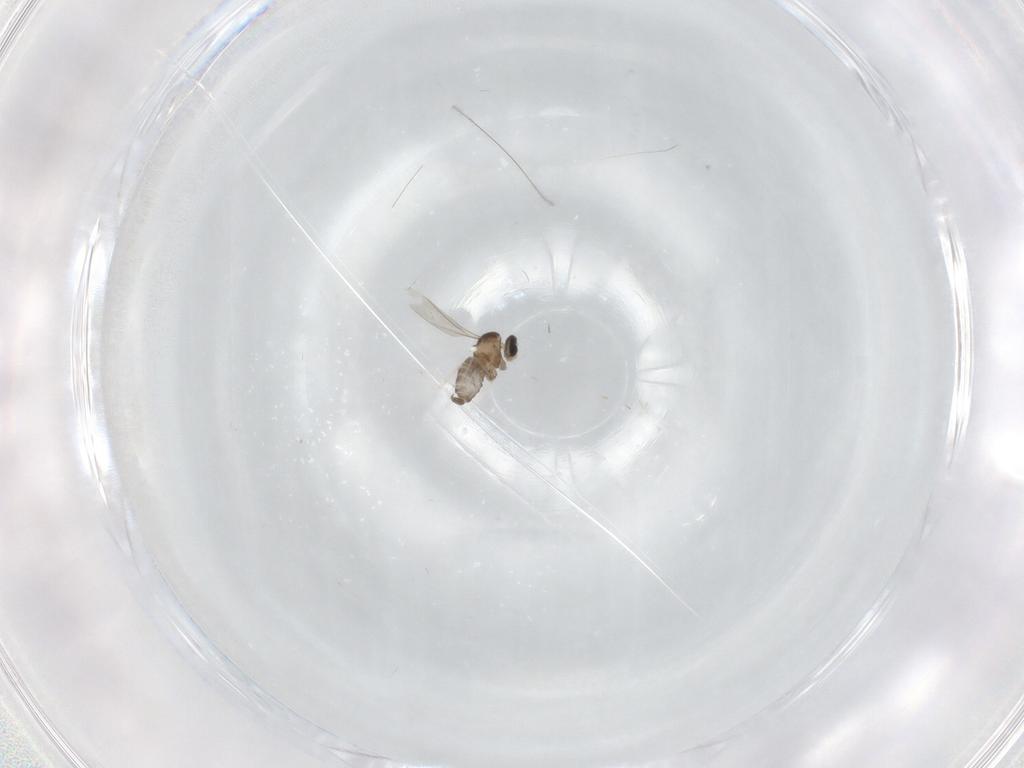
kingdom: Animalia
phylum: Arthropoda
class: Insecta
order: Diptera
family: Cecidomyiidae
